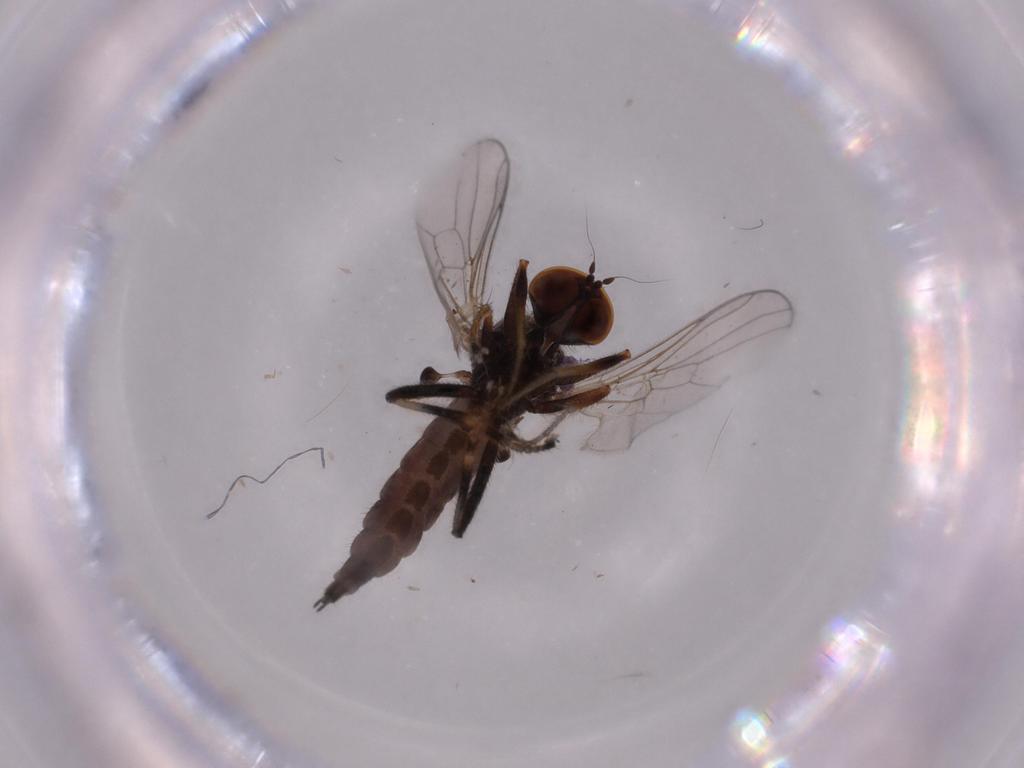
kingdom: Animalia
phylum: Arthropoda
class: Insecta
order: Diptera
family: Hybotidae
